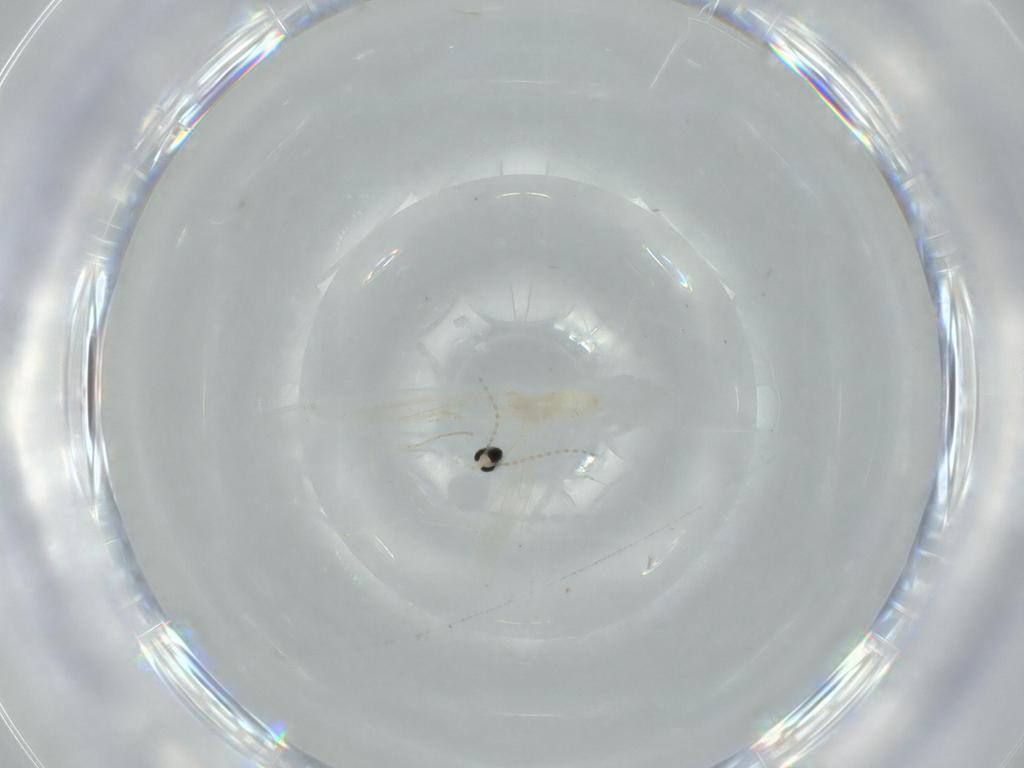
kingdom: Animalia
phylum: Arthropoda
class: Insecta
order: Diptera
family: Cecidomyiidae
